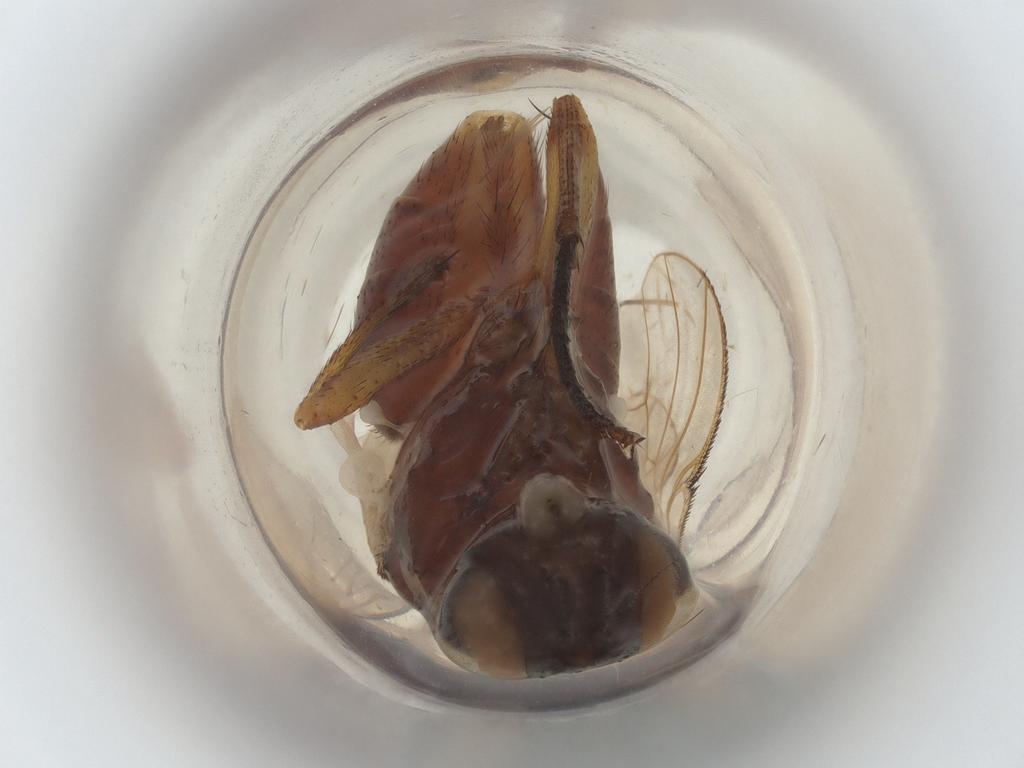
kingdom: Animalia
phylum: Arthropoda
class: Insecta
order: Diptera
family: Muscidae
